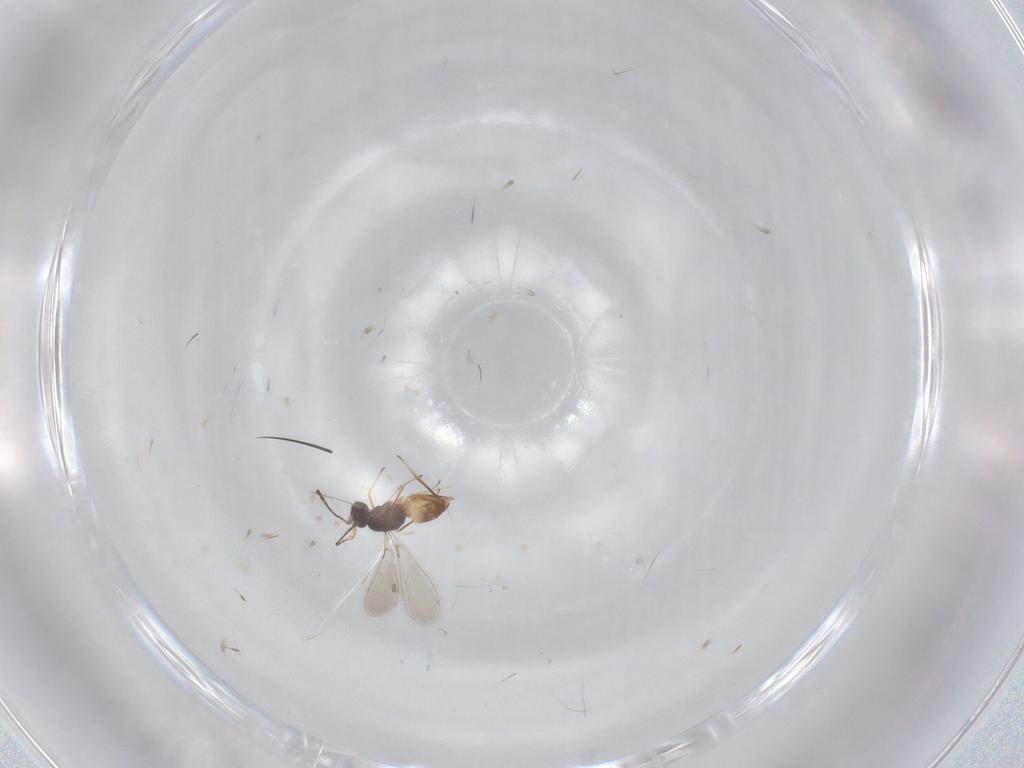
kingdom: Animalia
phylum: Arthropoda
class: Insecta
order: Hymenoptera
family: Mymaridae
